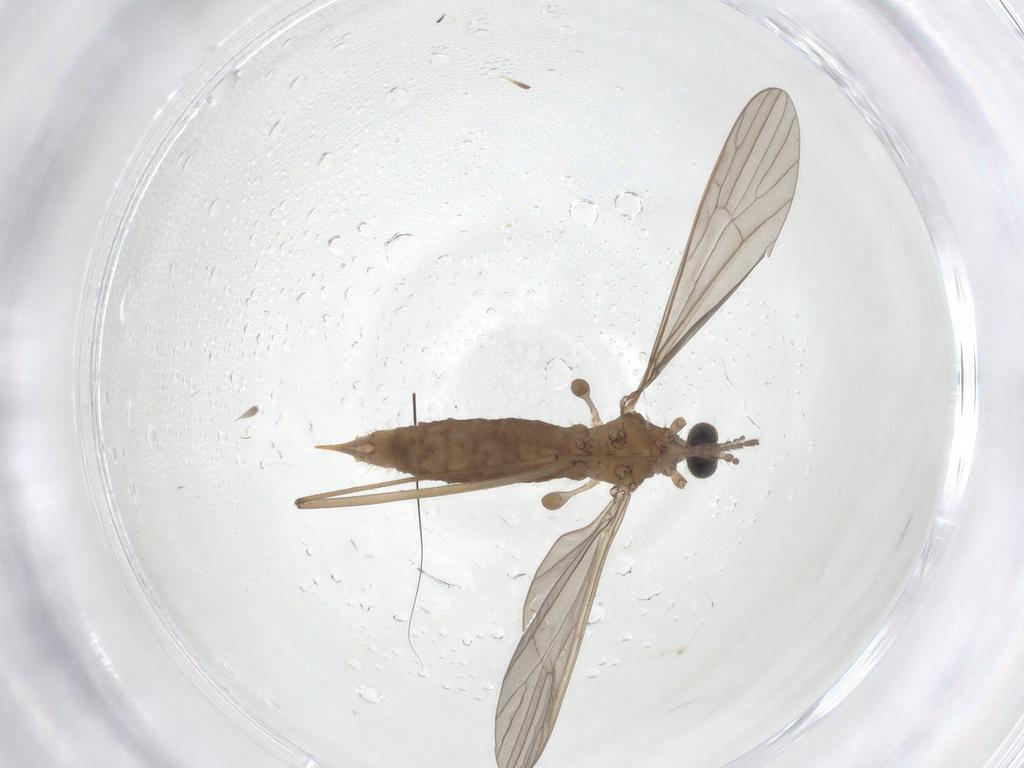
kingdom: Animalia
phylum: Arthropoda
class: Insecta
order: Diptera
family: Limoniidae
